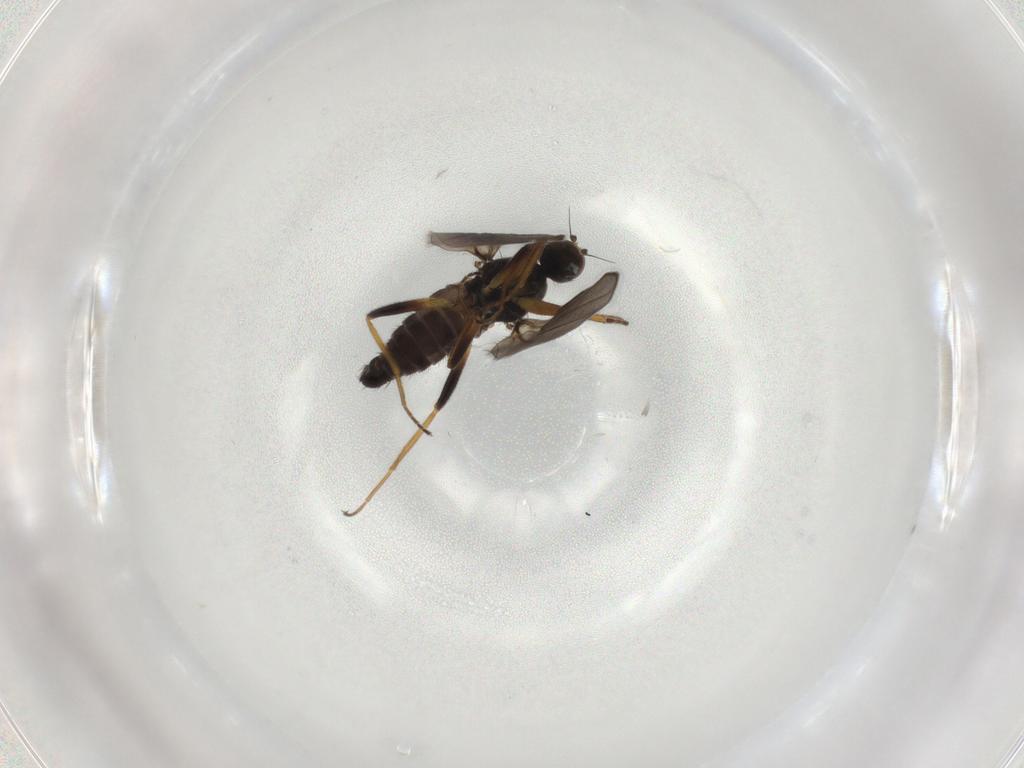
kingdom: Animalia
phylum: Arthropoda
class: Insecta
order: Diptera
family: Hybotidae
